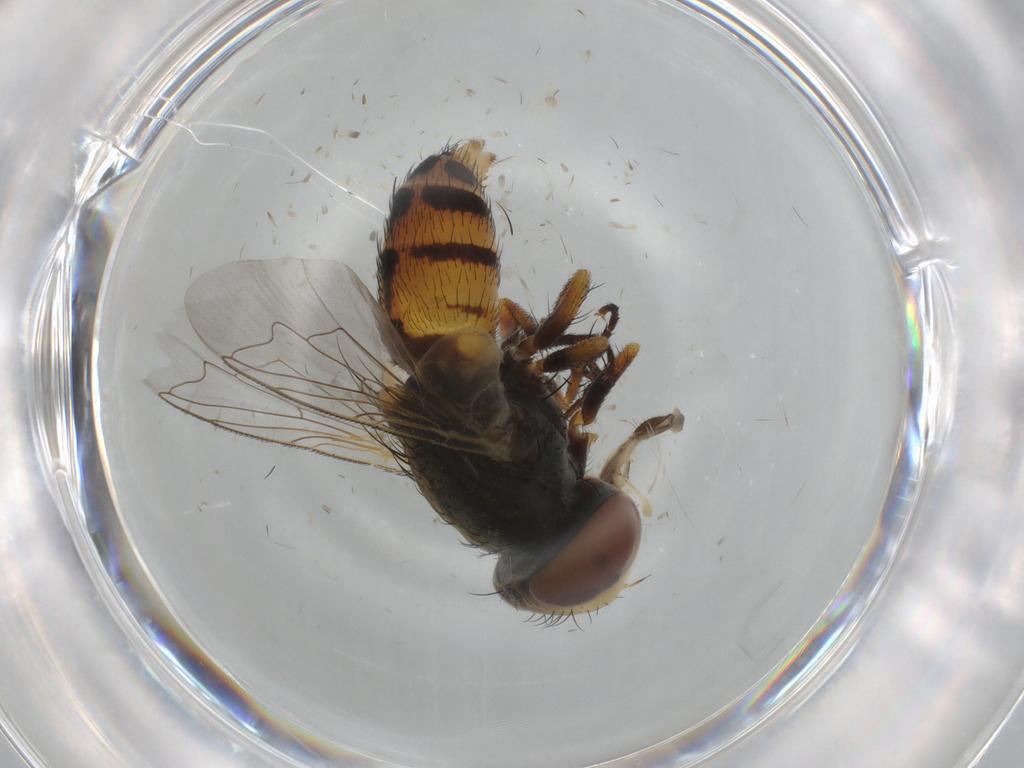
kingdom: Animalia
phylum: Arthropoda
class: Insecta
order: Diptera
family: Sarcophagidae
